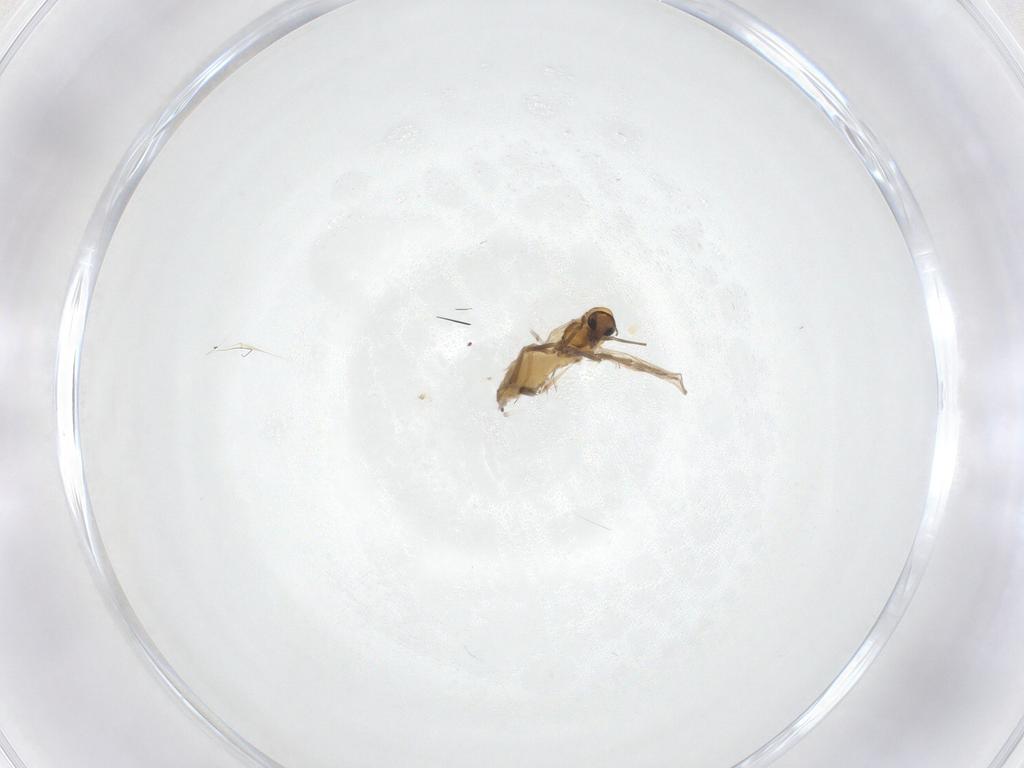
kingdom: Animalia
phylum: Arthropoda
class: Insecta
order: Diptera
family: Chironomidae
